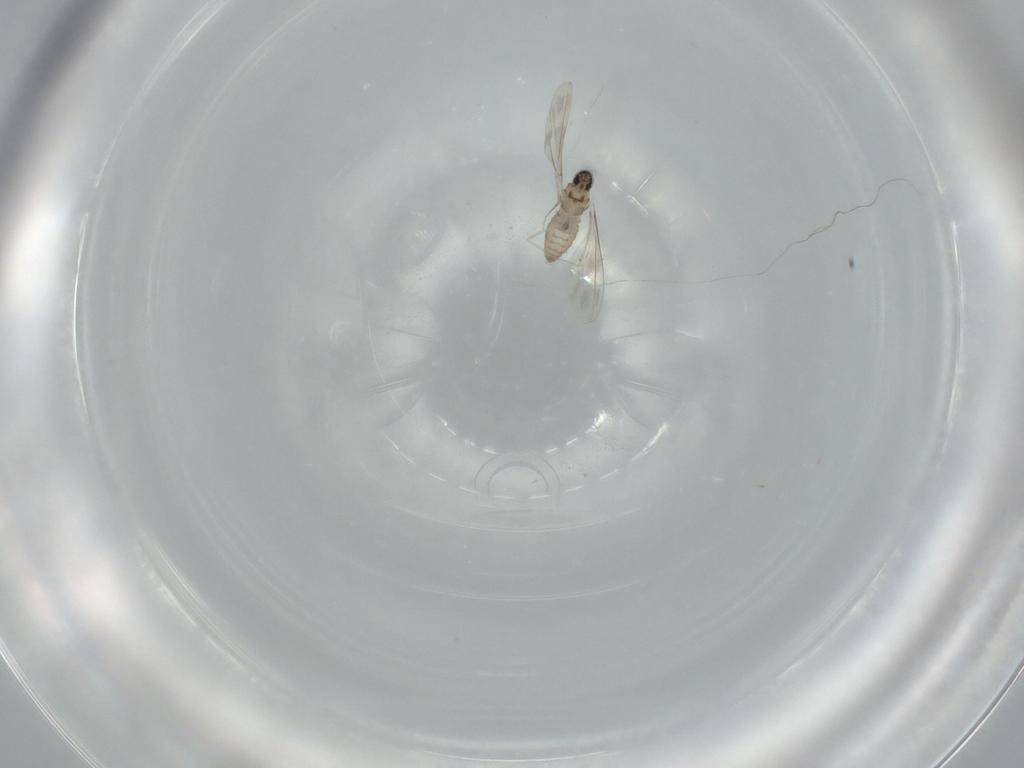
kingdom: Animalia
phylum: Arthropoda
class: Insecta
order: Diptera
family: Cecidomyiidae
